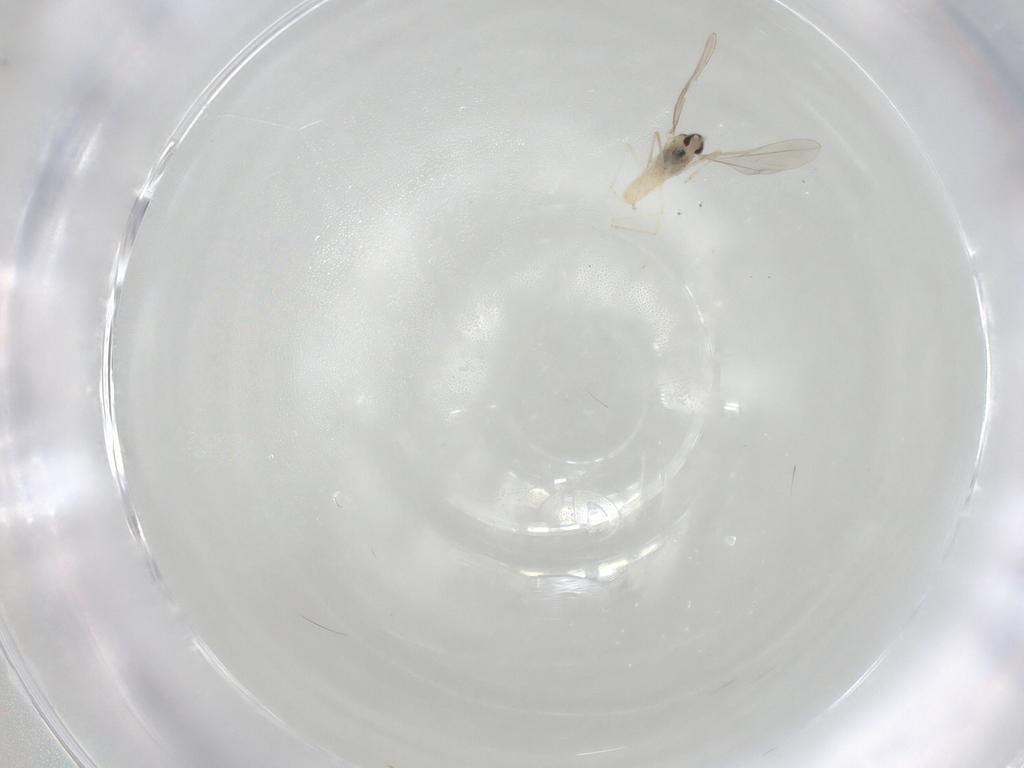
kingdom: Animalia
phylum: Arthropoda
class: Insecta
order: Diptera
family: Cecidomyiidae
